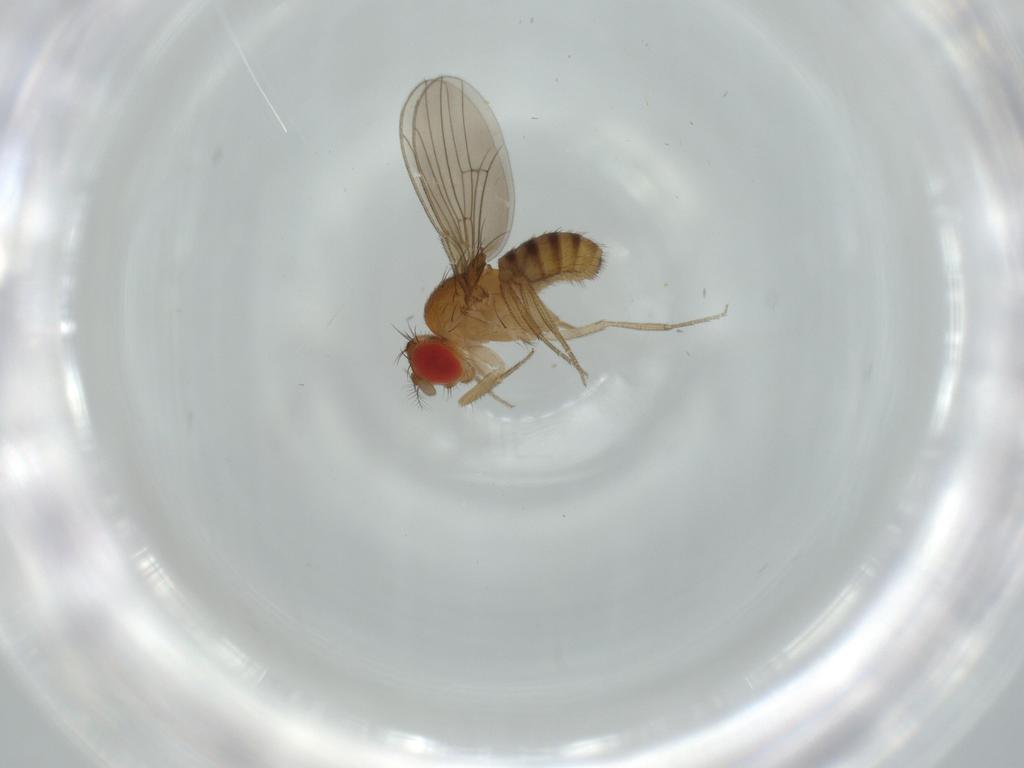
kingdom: Animalia
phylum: Arthropoda
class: Insecta
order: Diptera
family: Drosophilidae
